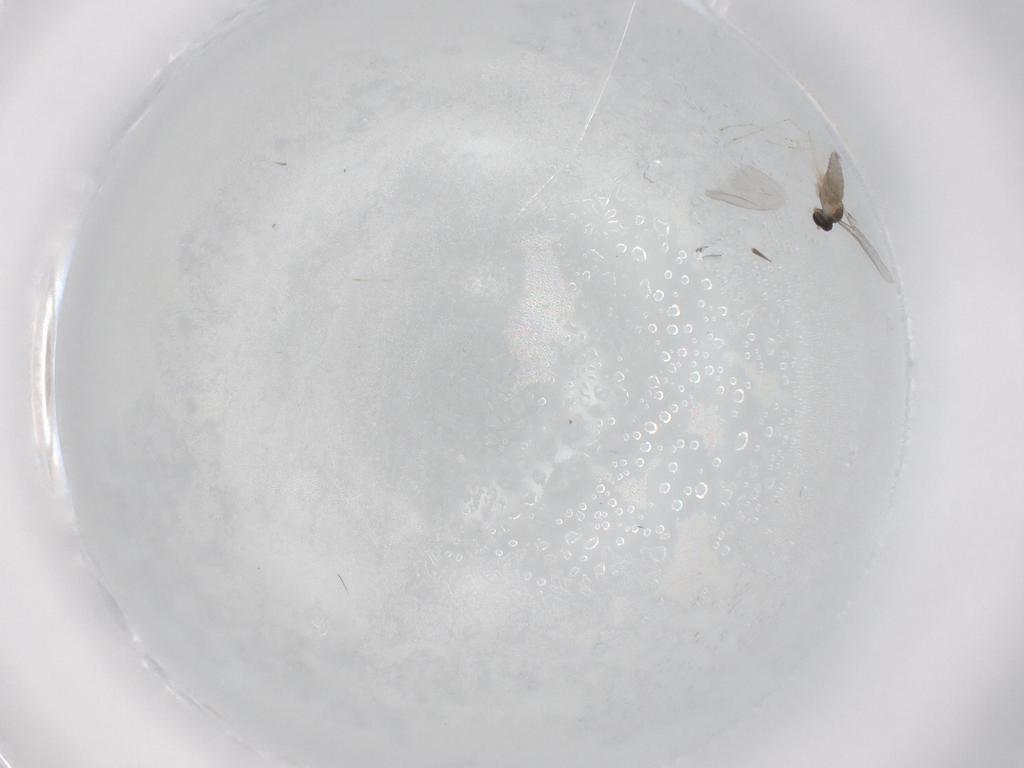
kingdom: Animalia
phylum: Arthropoda
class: Insecta
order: Diptera
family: Cecidomyiidae
